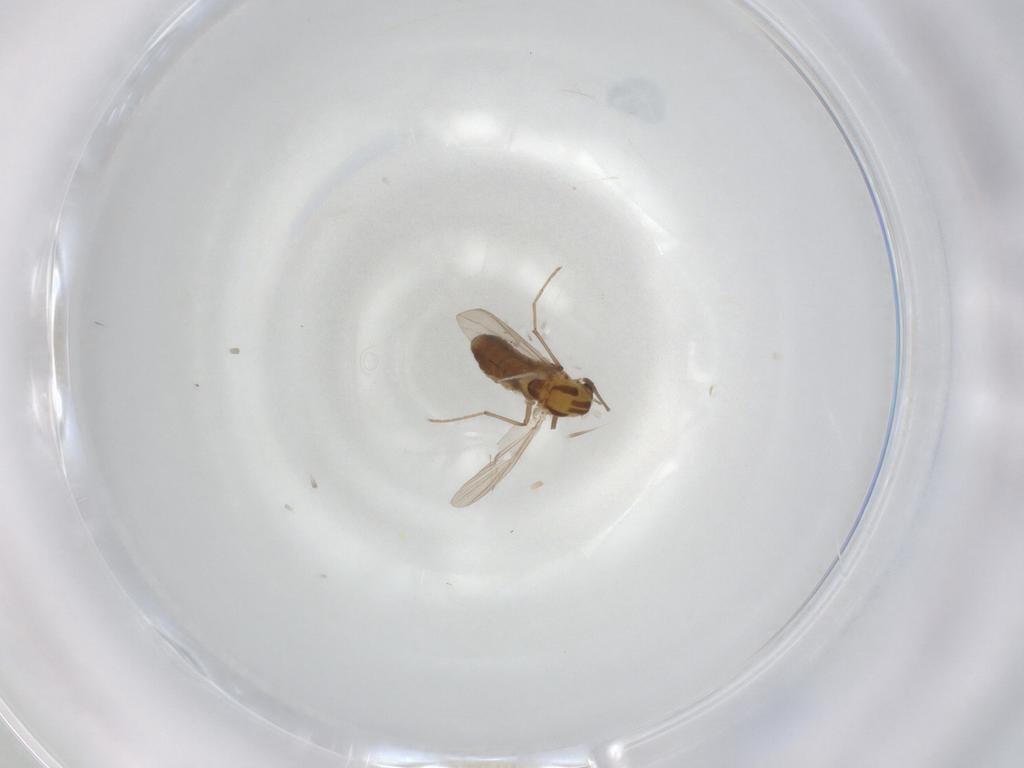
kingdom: Animalia
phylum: Arthropoda
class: Insecta
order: Diptera
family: Chironomidae
